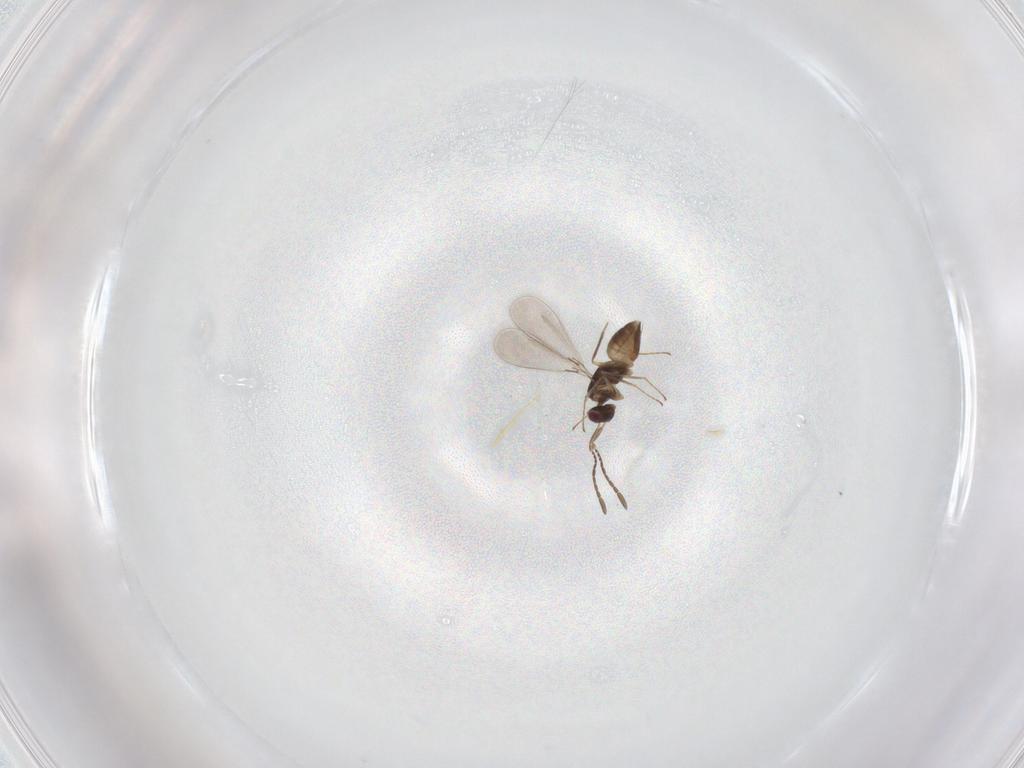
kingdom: Animalia
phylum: Arthropoda
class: Insecta
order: Hymenoptera
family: Mymaridae
